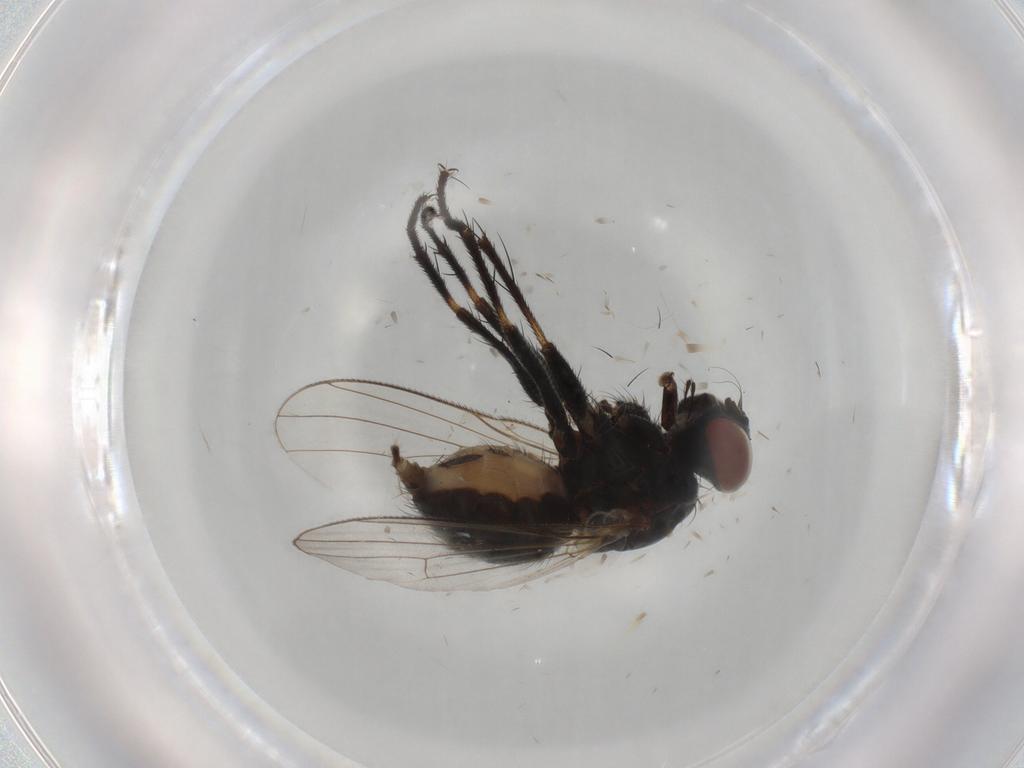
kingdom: Animalia
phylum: Arthropoda
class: Insecta
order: Diptera
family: Muscidae
